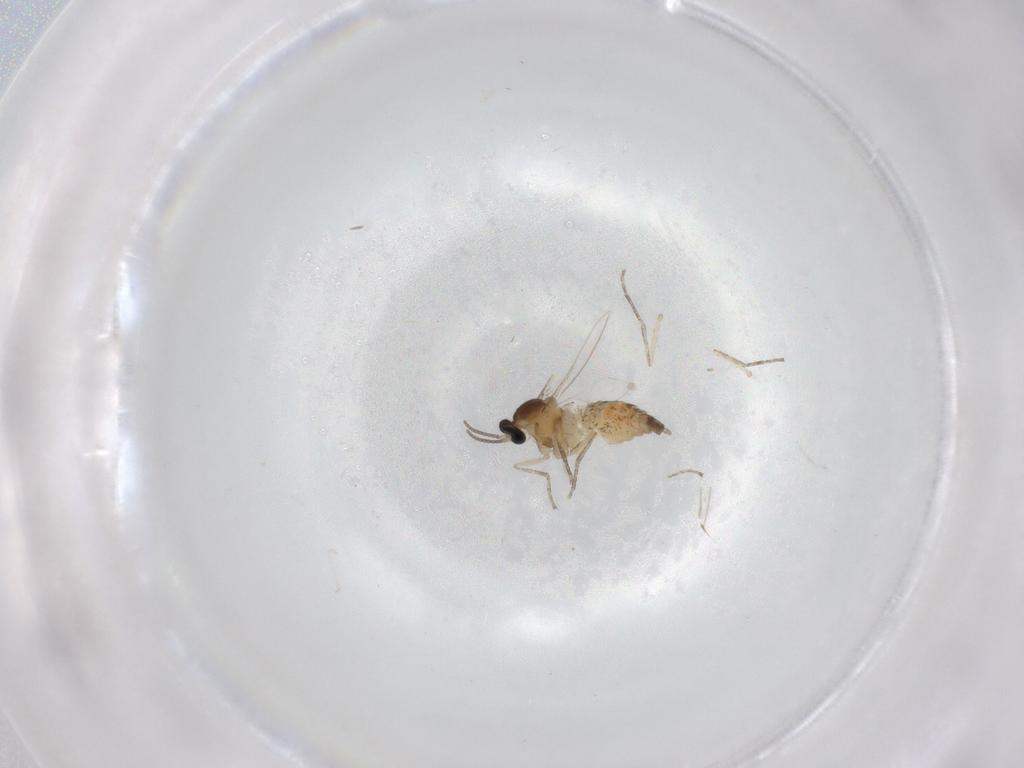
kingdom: Animalia
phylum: Arthropoda
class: Insecta
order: Diptera
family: Cecidomyiidae
